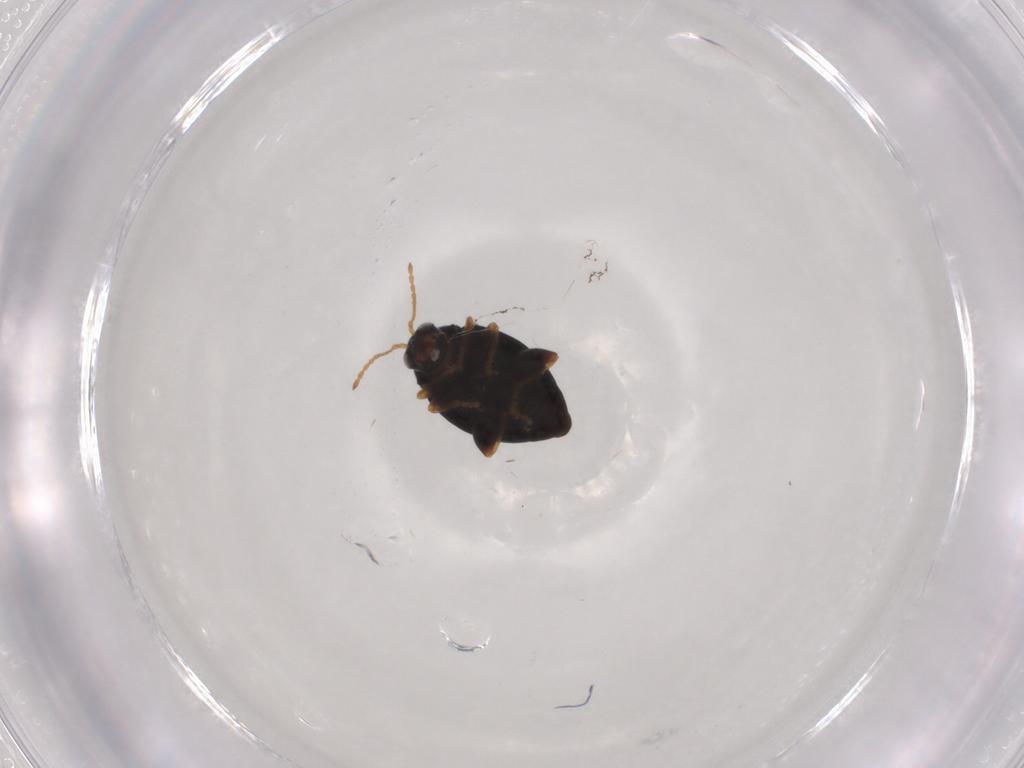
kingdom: Animalia
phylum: Arthropoda
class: Insecta
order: Coleoptera
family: Chrysomelidae
